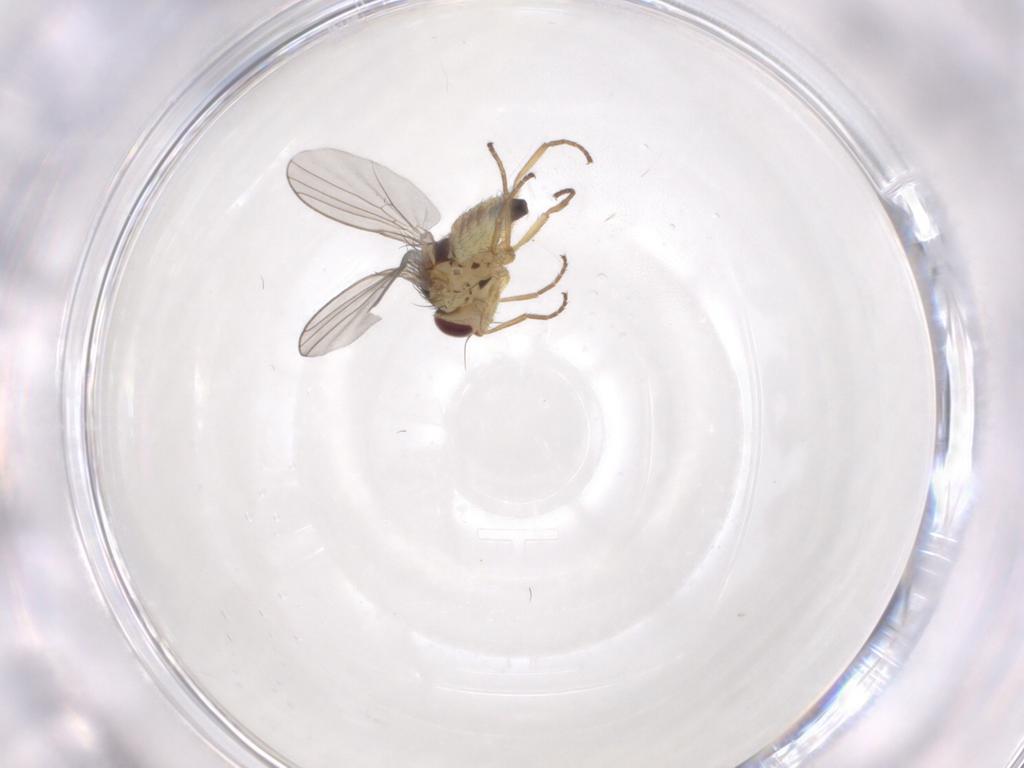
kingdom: Animalia
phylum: Arthropoda
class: Insecta
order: Diptera
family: Agromyzidae
